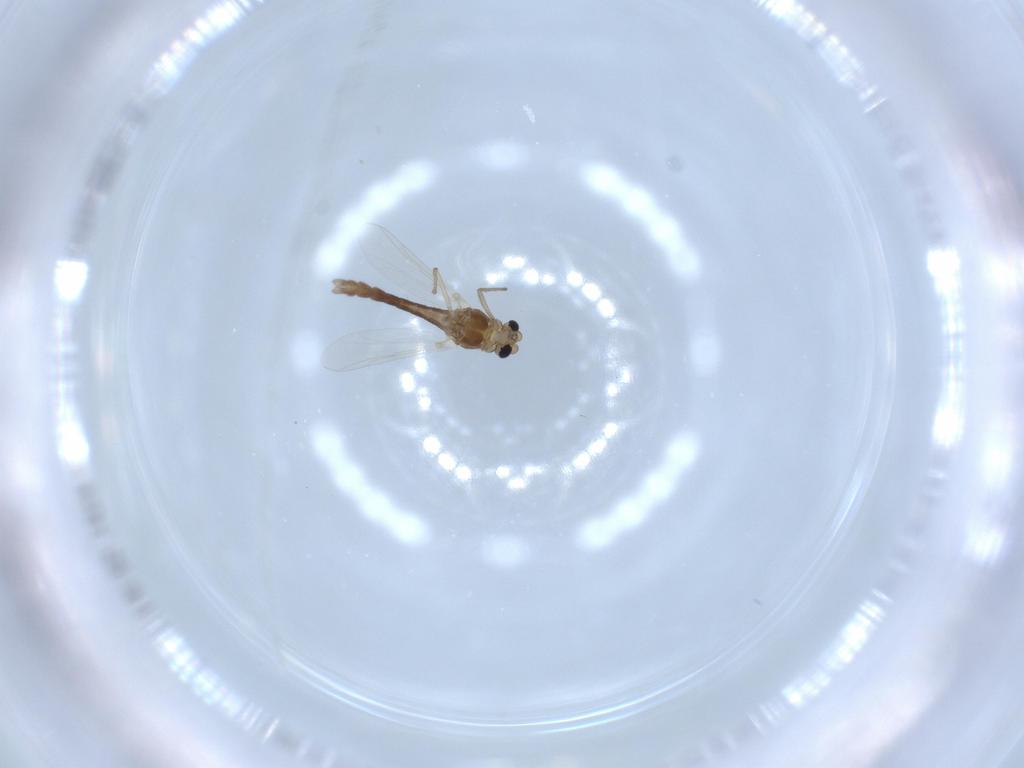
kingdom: Animalia
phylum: Arthropoda
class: Insecta
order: Diptera
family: Chironomidae
